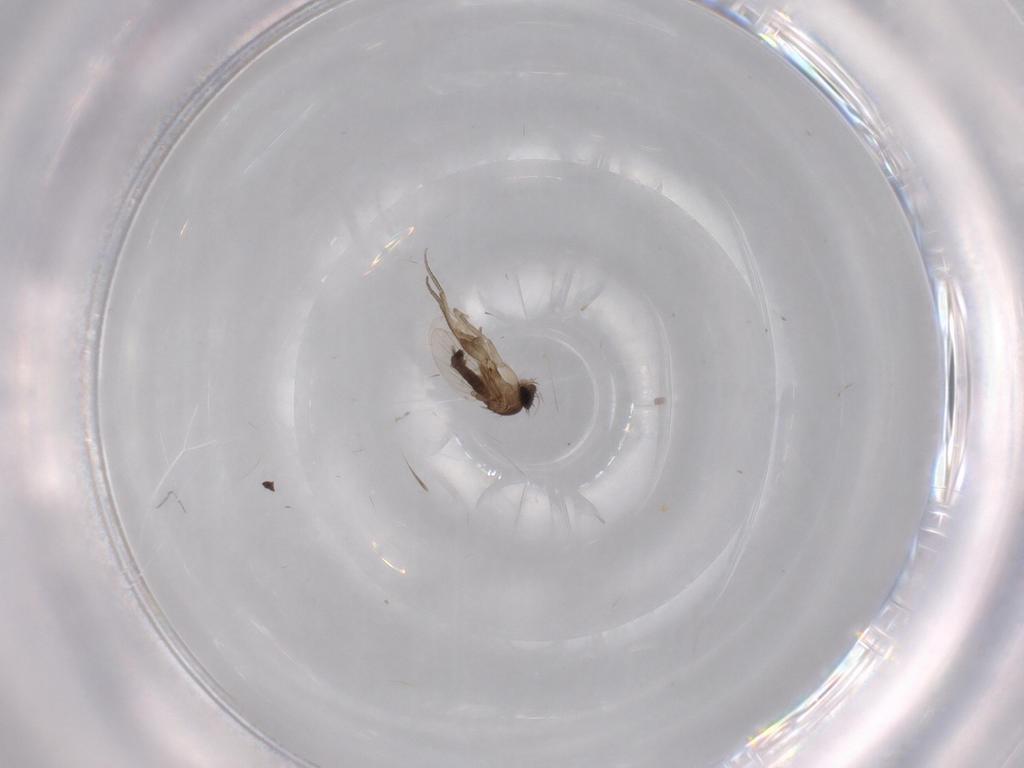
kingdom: Animalia
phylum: Arthropoda
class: Insecta
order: Diptera
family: Phoridae
